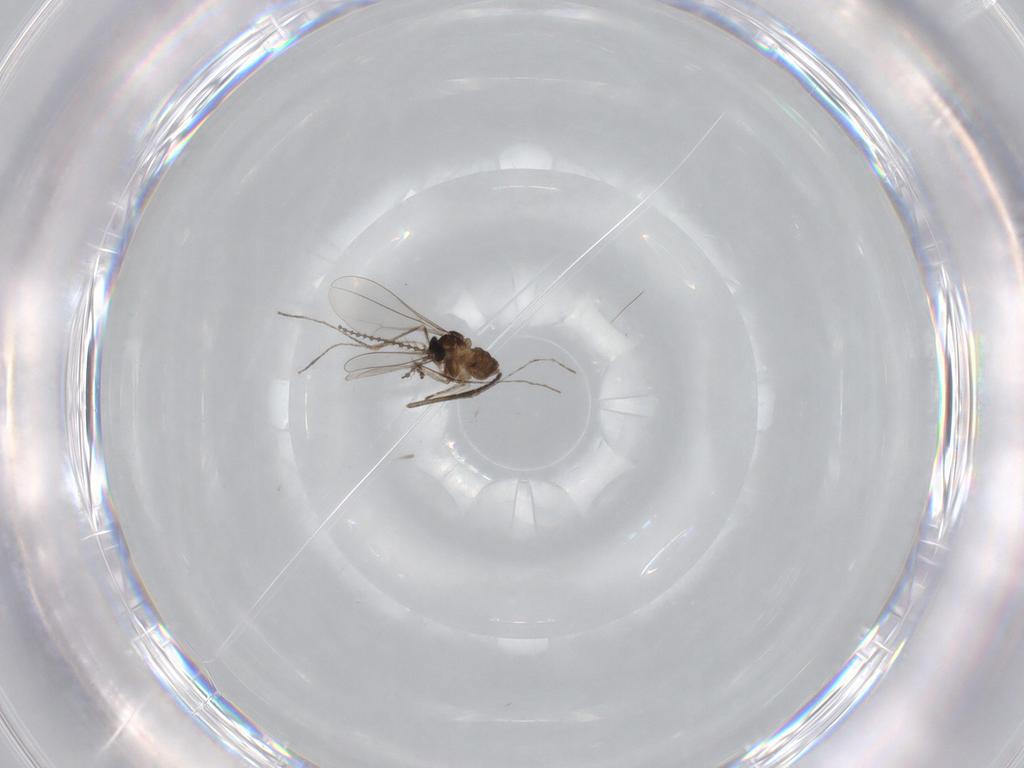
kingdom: Animalia
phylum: Arthropoda
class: Insecta
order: Diptera
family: Cecidomyiidae
